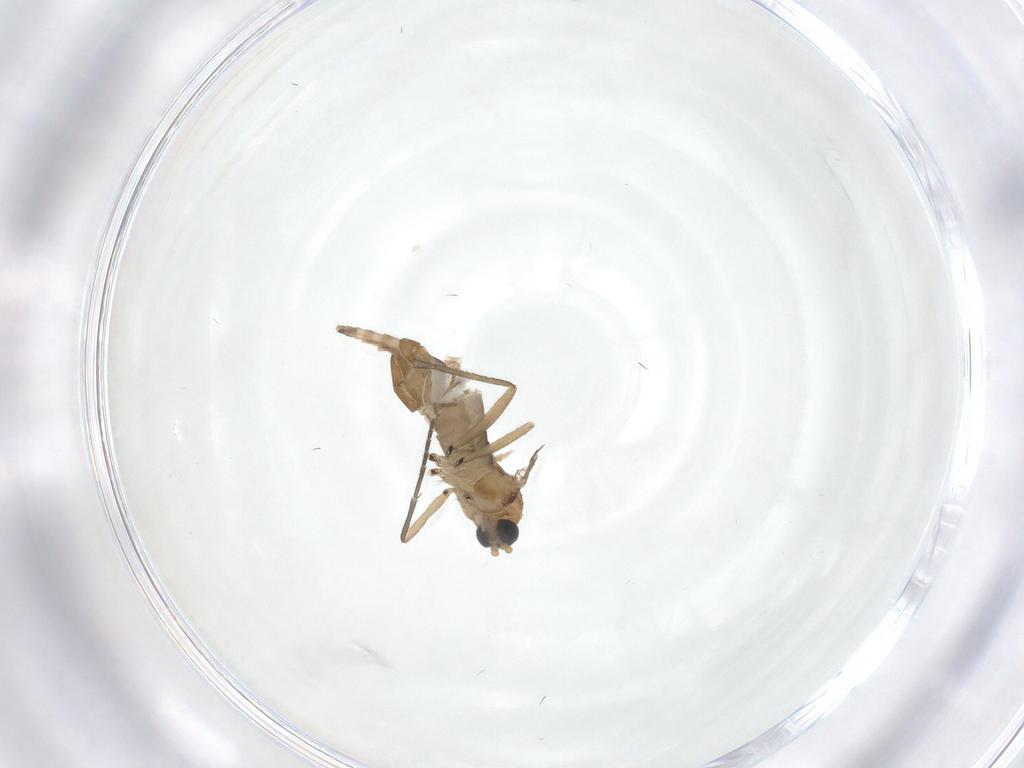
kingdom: Animalia
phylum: Arthropoda
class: Insecta
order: Diptera
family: Sciaridae
